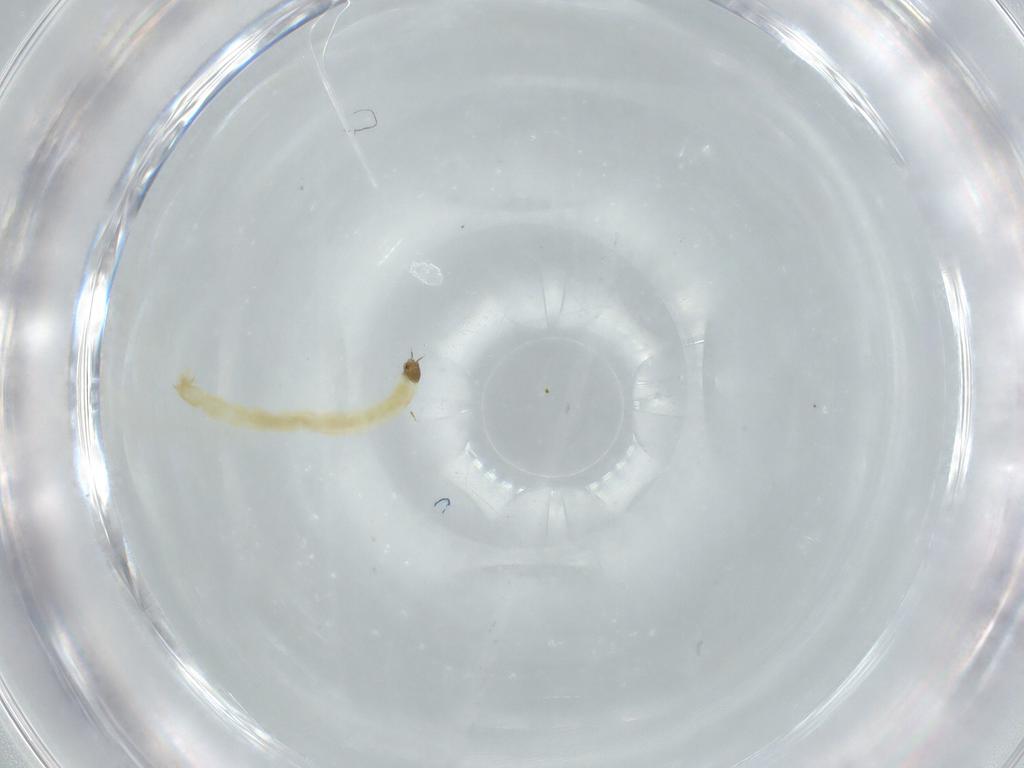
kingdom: Animalia
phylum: Arthropoda
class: Insecta
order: Diptera
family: Chironomidae
